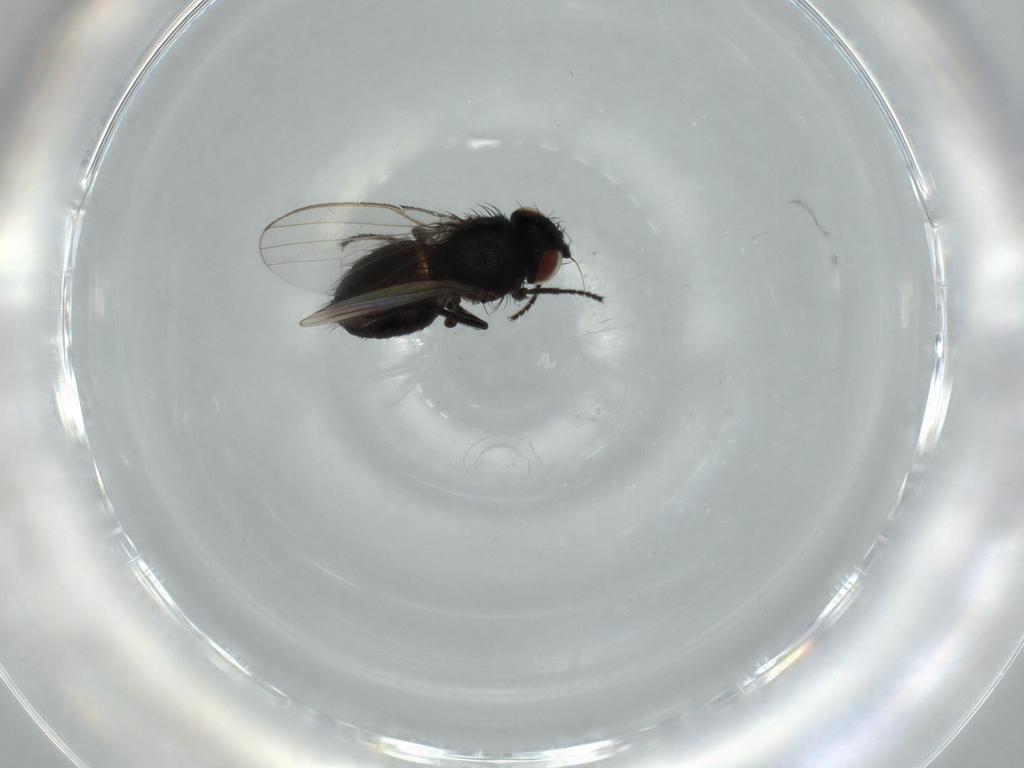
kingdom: Animalia
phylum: Arthropoda
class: Insecta
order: Diptera
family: Milichiidae
